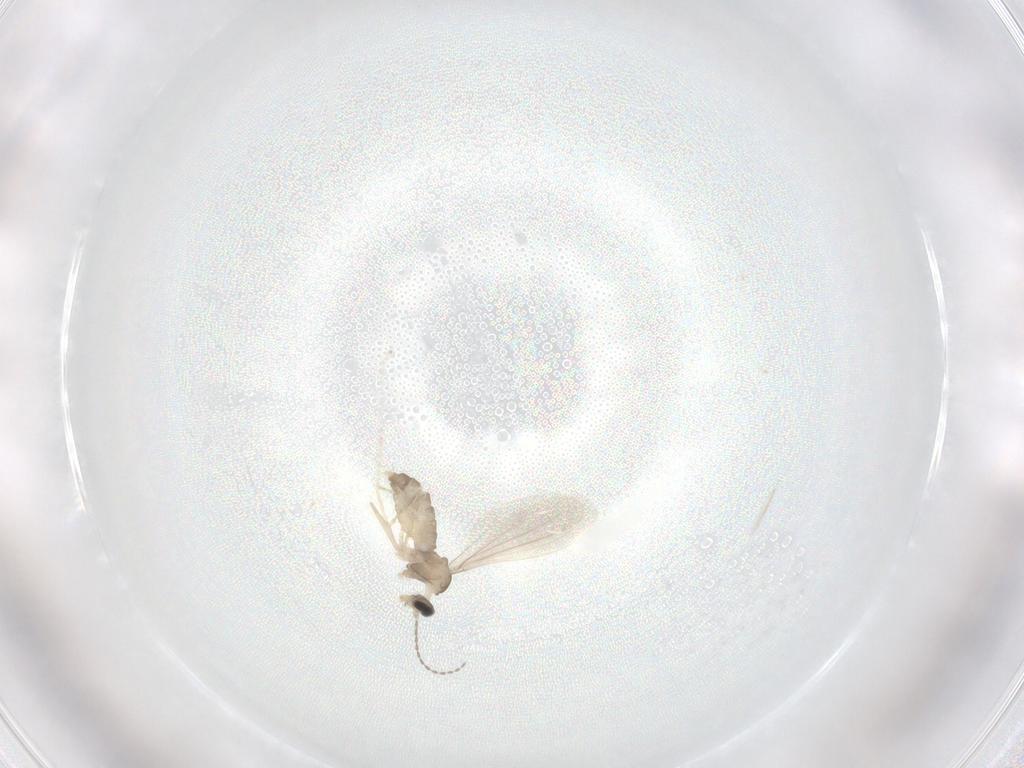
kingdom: Animalia
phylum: Arthropoda
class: Insecta
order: Diptera
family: Cecidomyiidae
